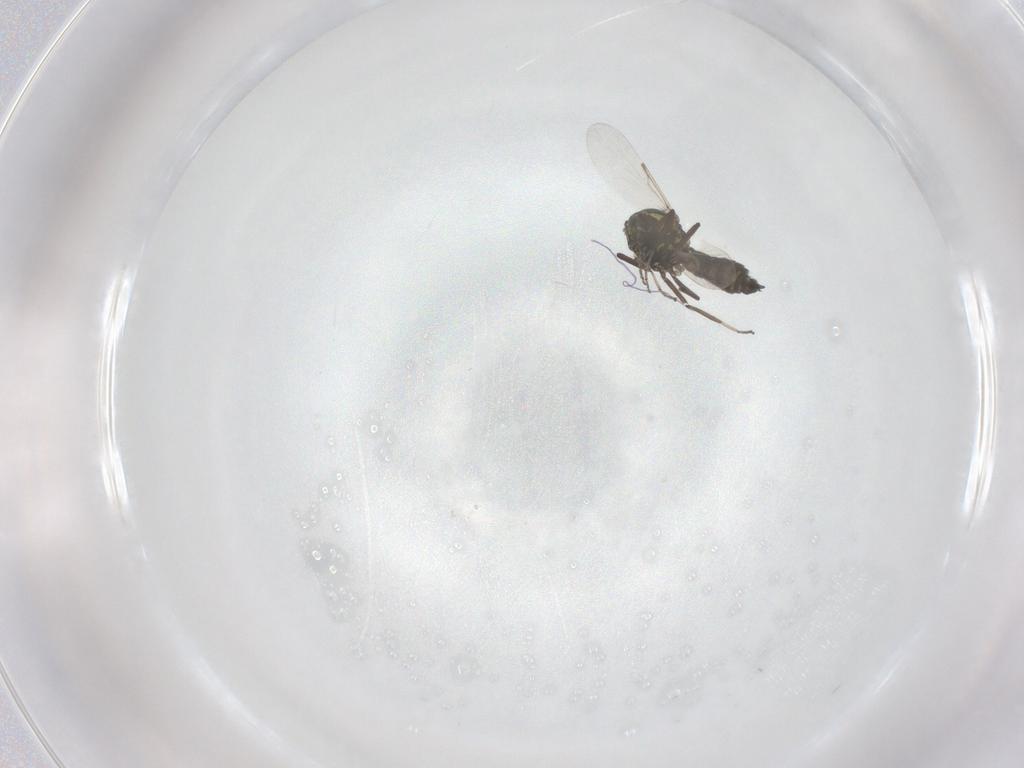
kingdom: Animalia
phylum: Arthropoda
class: Insecta
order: Diptera
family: Ceratopogonidae
